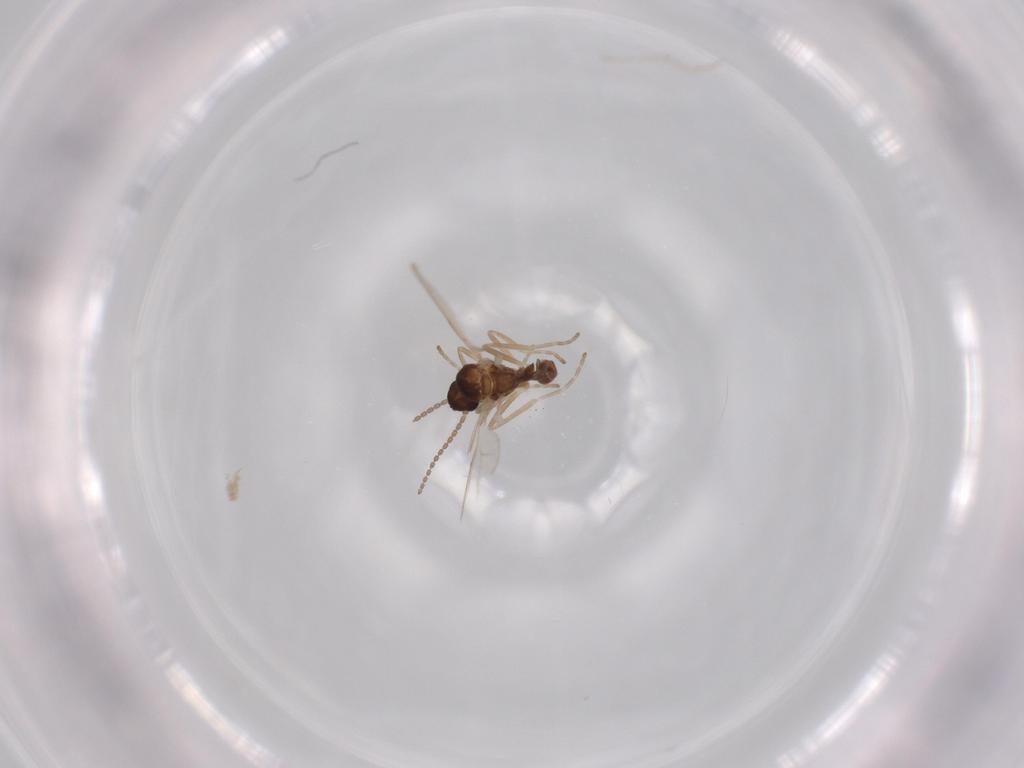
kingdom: Animalia
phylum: Arthropoda
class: Insecta
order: Diptera
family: Cecidomyiidae
